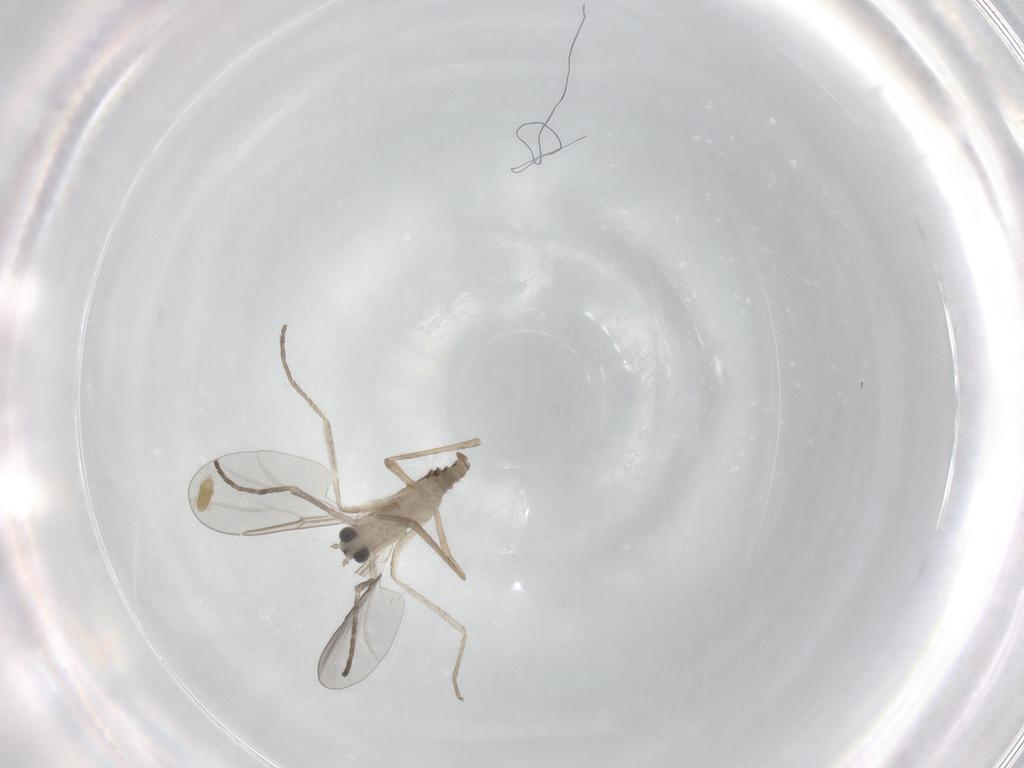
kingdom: Animalia
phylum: Arthropoda
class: Insecta
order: Diptera
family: Cecidomyiidae
